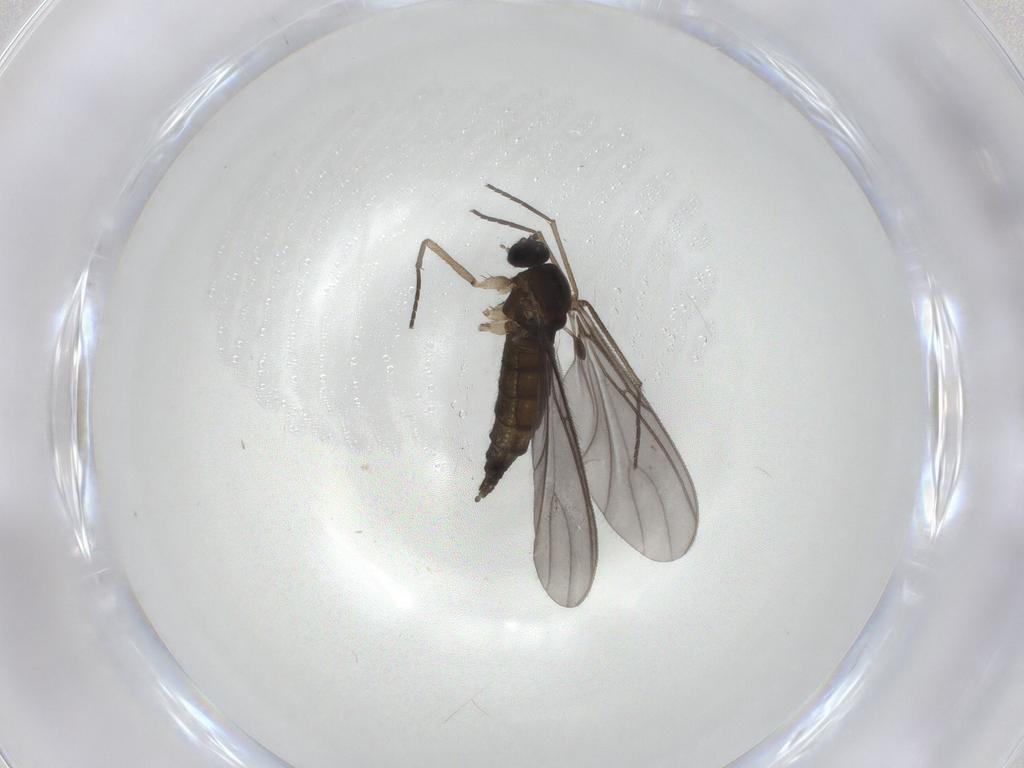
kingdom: Animalia
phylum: Arthropoda
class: Insecta
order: Diptera
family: Sciaridae
